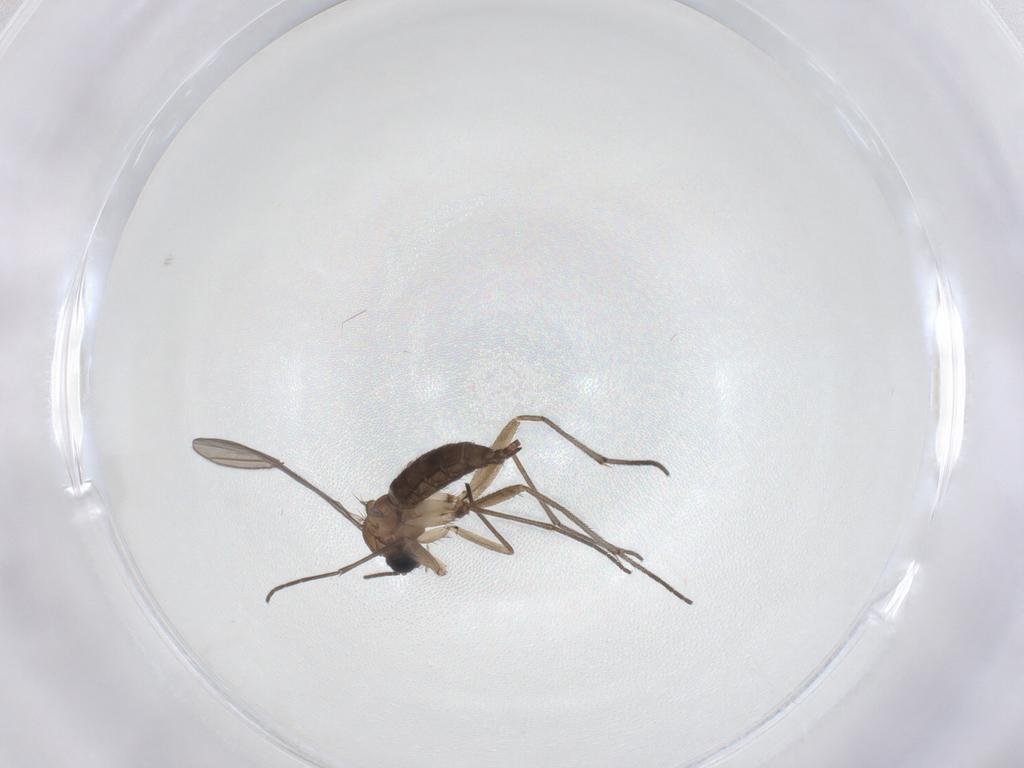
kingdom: Animalia
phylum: Arthropoda
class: Insecta
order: Diptera
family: Sciaridae
